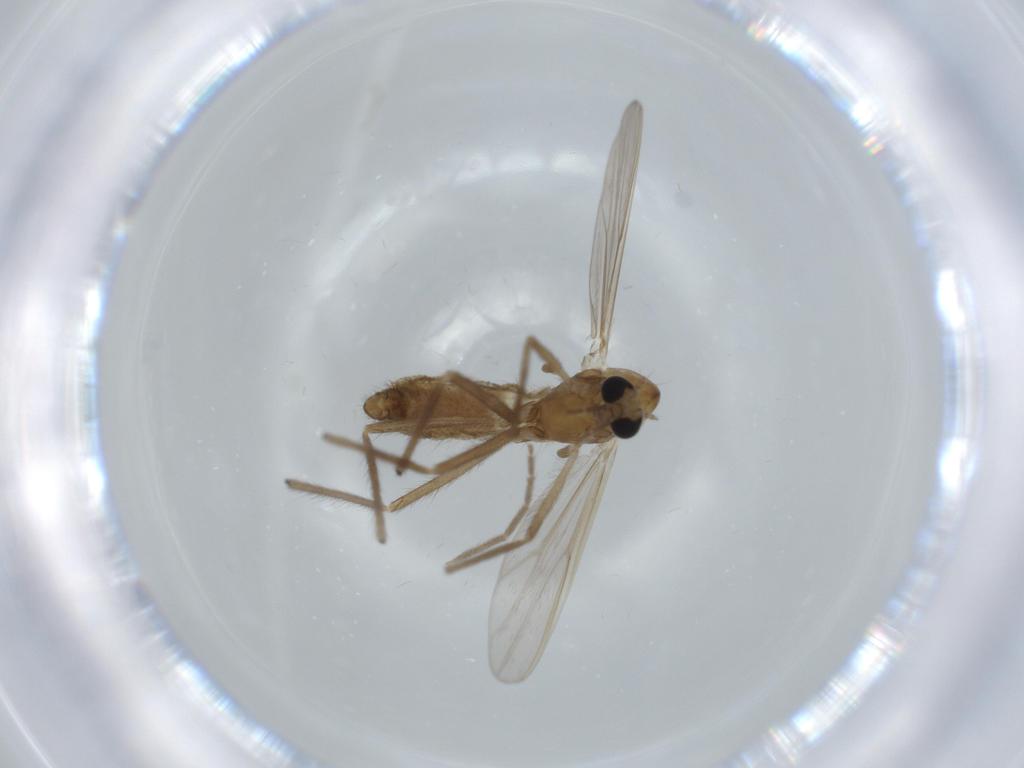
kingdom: Animalia
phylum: Arthropoda
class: Insecta
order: Diptera
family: Chironomidae
